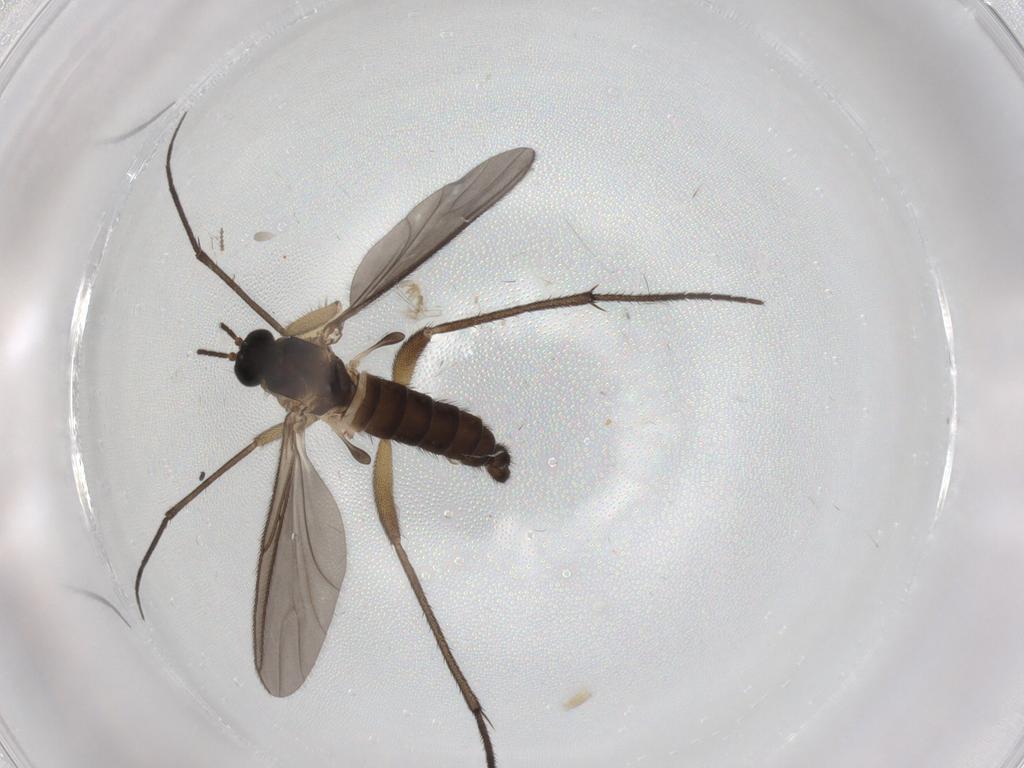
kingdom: Animalia
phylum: Arthropoda
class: Insecta
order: Diptera
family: Sciaridae
